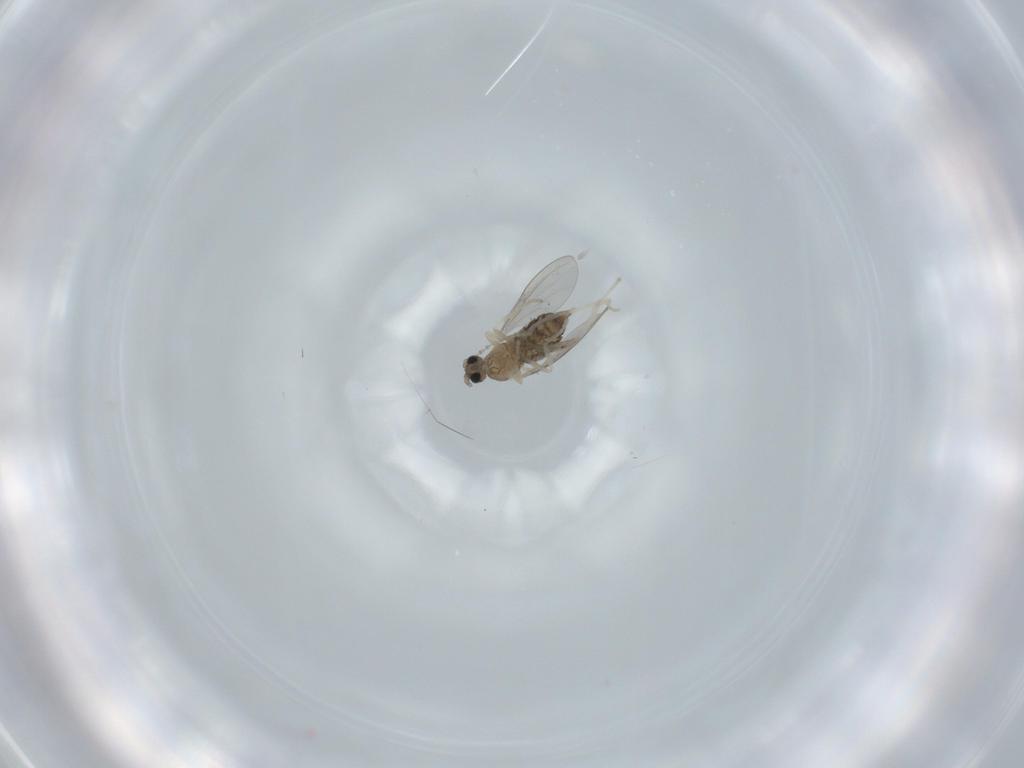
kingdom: Animalia
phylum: Arthropoda
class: Insecta
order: Diptera
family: Cecidomyiidae
